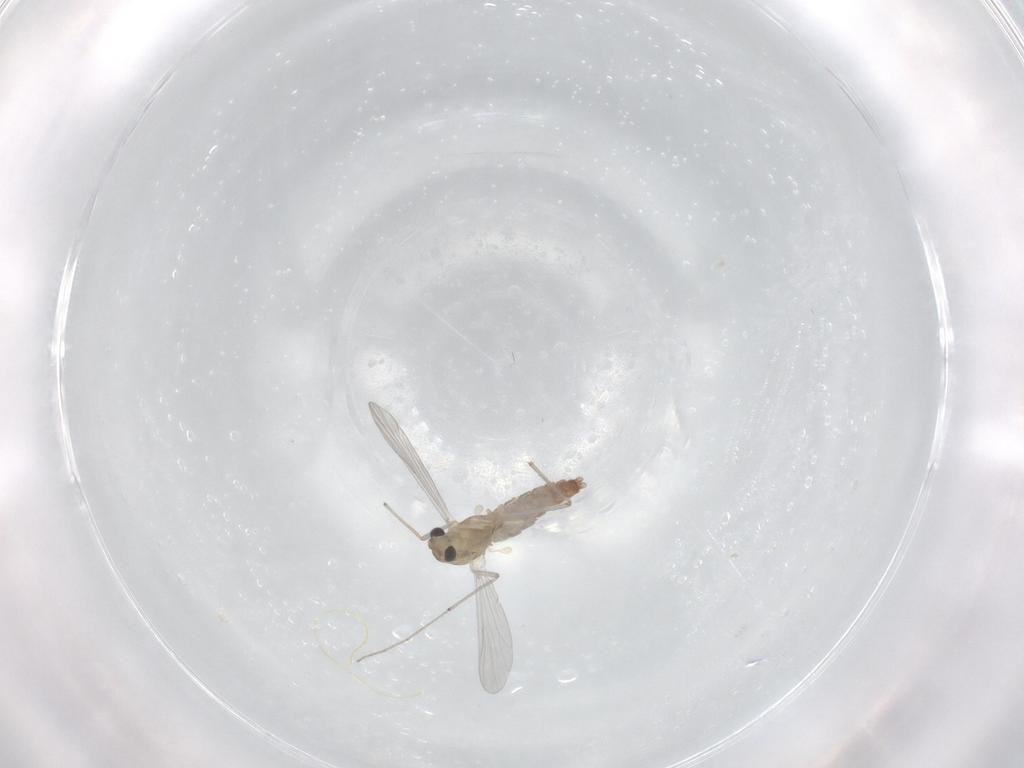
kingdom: Animalia
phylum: Arthropoda
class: Insecta
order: Diptera
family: Chironomidae
